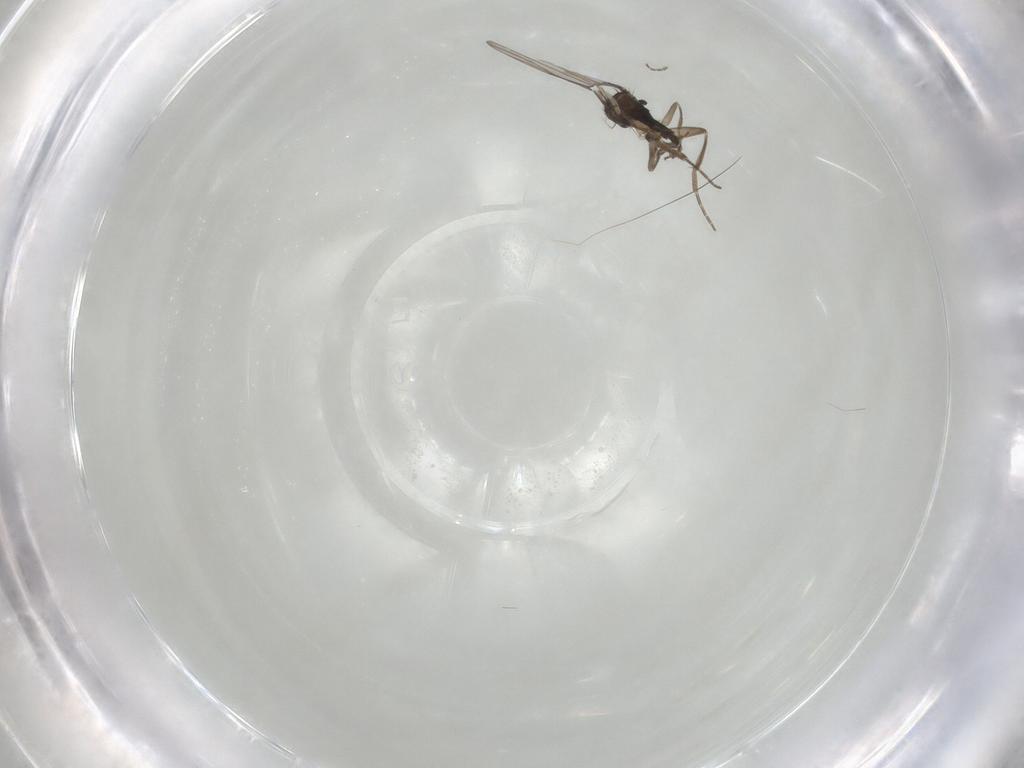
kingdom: Animalia
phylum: Arthropoda
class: Insecta
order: Diptera
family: Phoridae
